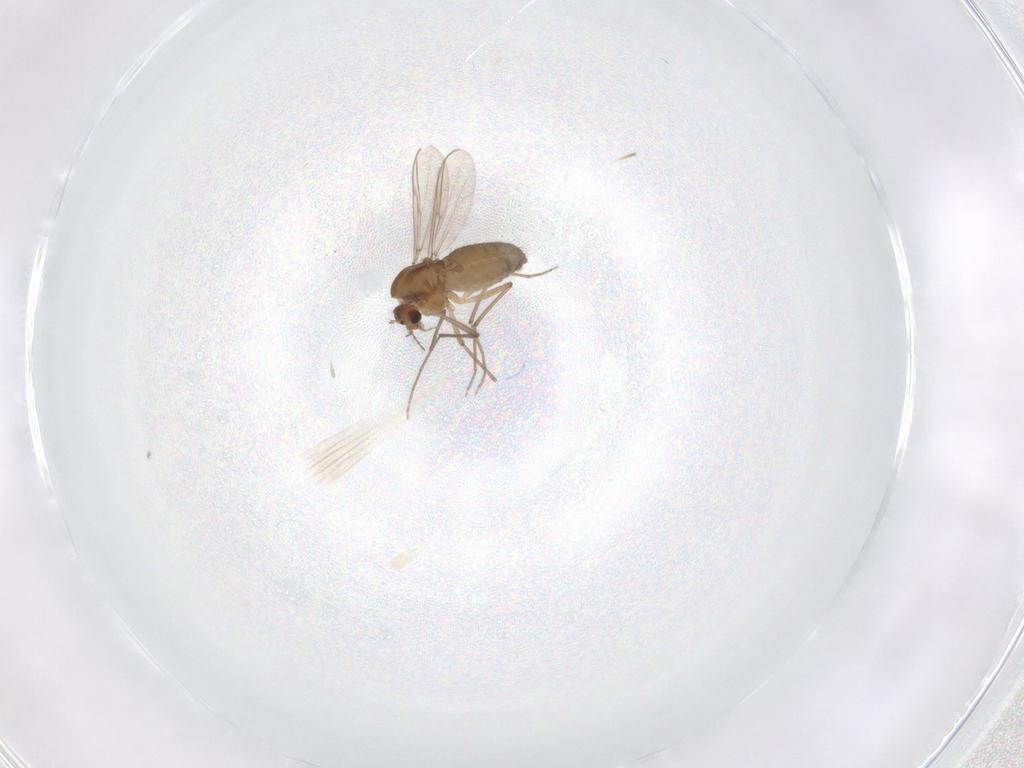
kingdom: Animalia
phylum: Arthropoda
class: Insecta
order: Diptera
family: Chironomidae
